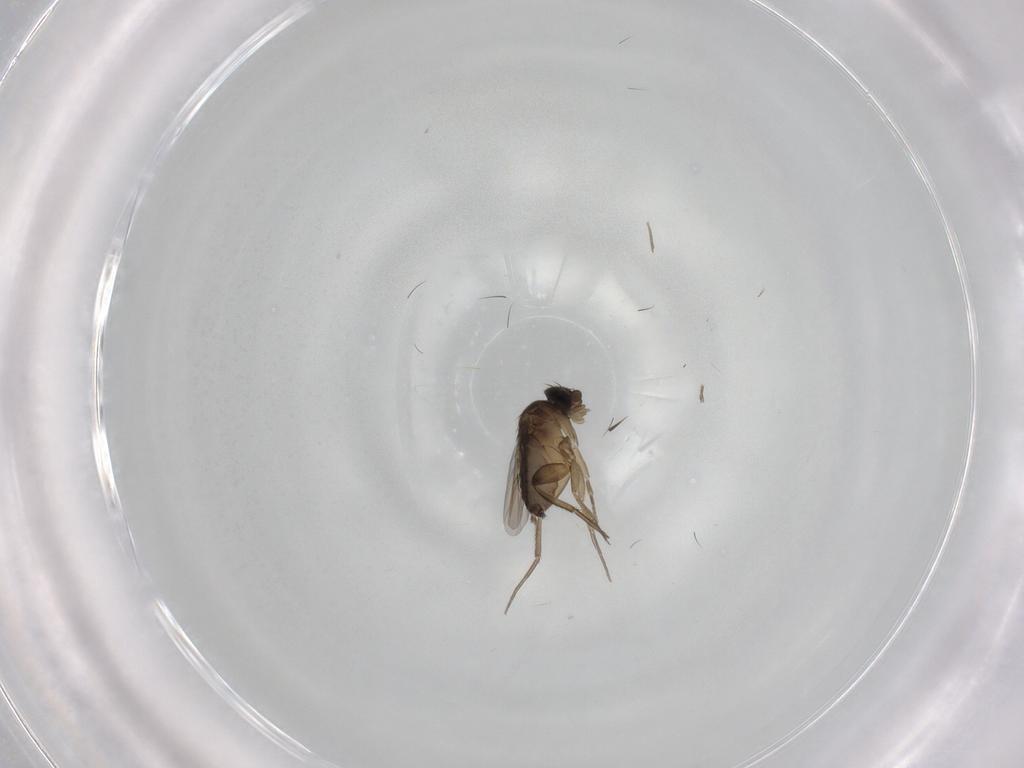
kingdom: Animalia
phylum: Arthropoda
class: Insecta
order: Diptera
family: Phoridae
